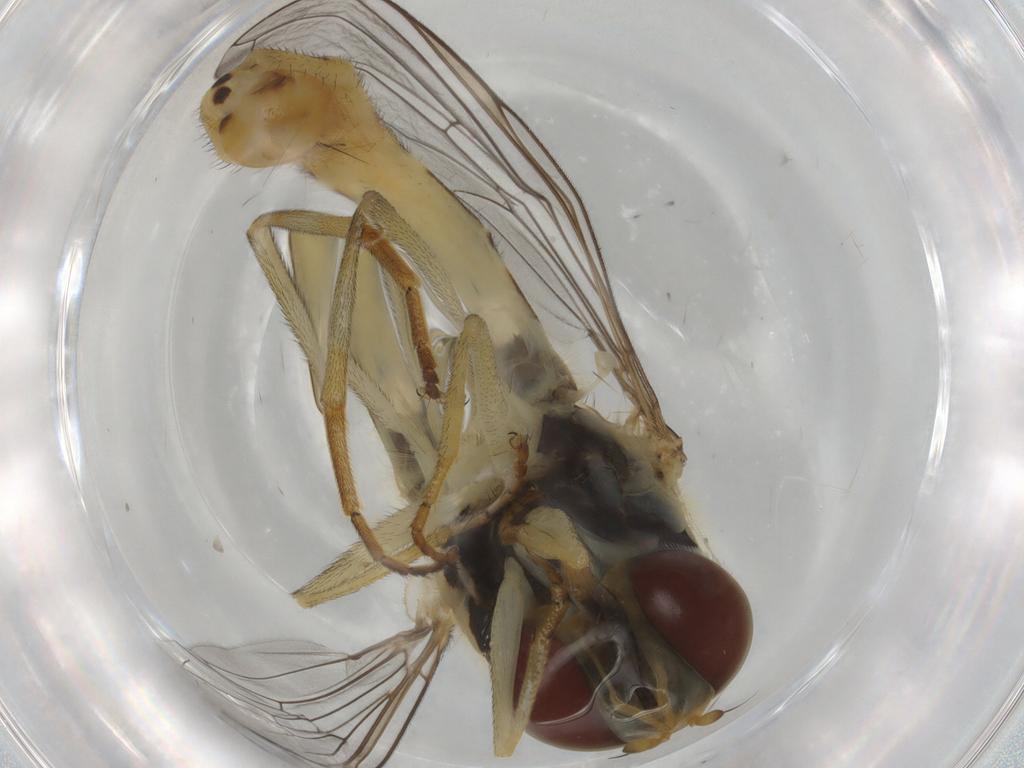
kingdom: Animalia
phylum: Arthropoda
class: Insecta
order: Diptera
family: Syrphidae
